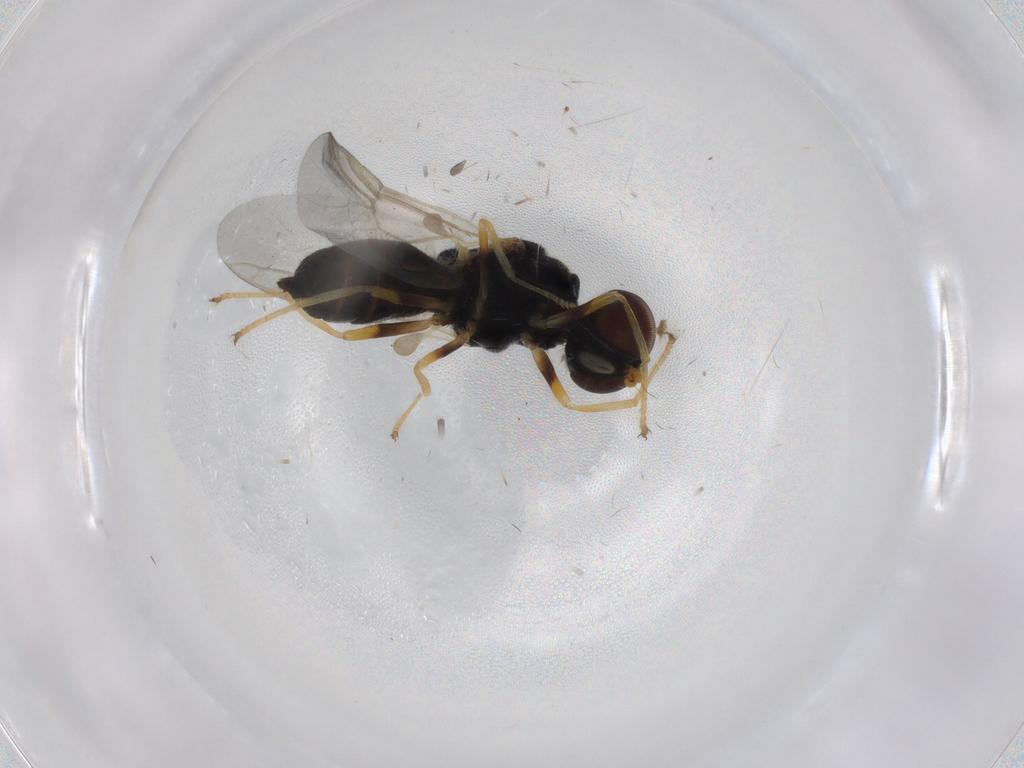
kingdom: Animalia
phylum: Arthropoda
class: Insecta
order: Diptera
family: Stratiomyidae
